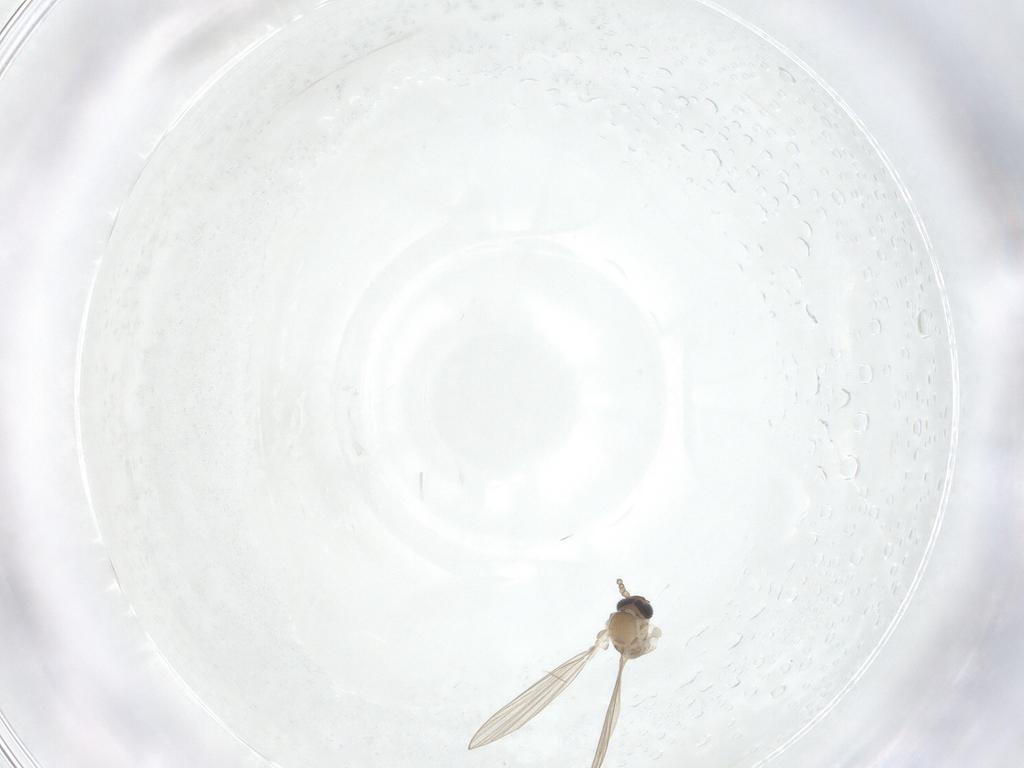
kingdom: Animalia
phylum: Arthropoda
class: Insecta
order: Diptera
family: Psychodidae
